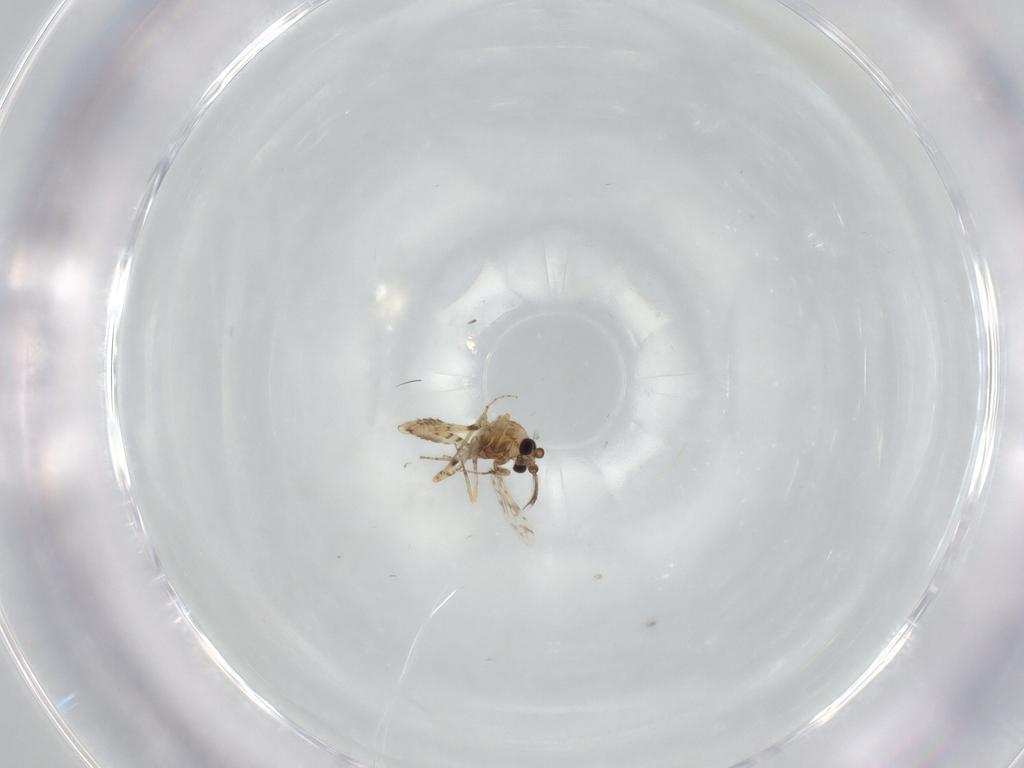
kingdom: Animalia
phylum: Arthropoda
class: Insecta
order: Diptera
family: Ceratopogonidae
